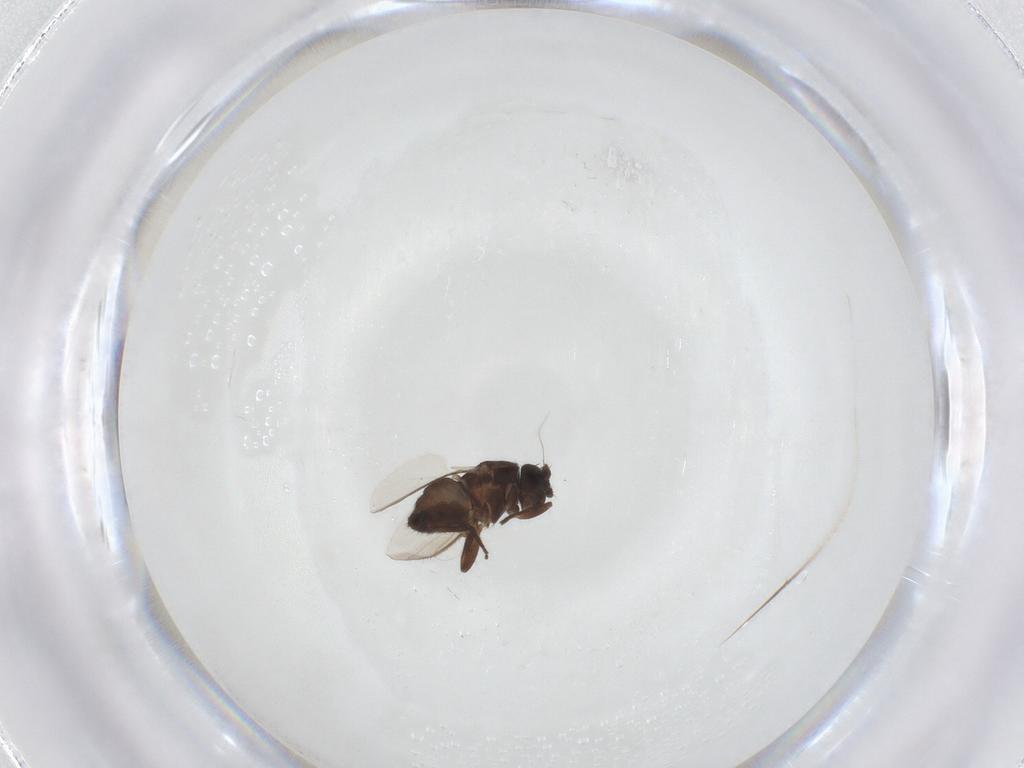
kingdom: Animalia
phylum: Arthropoda
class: Insecta
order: Diptera
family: Sphaeroceridae
